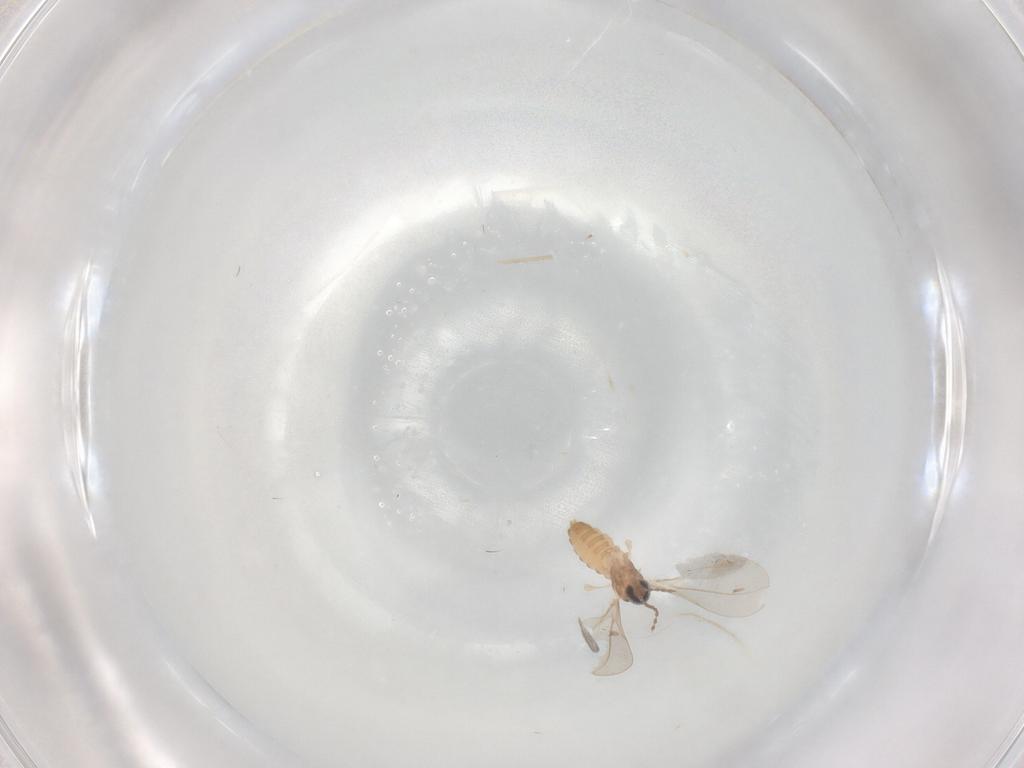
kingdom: Animalia
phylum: Arthropoda
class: Insecta
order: Diptera
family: Cecidomyiidae
